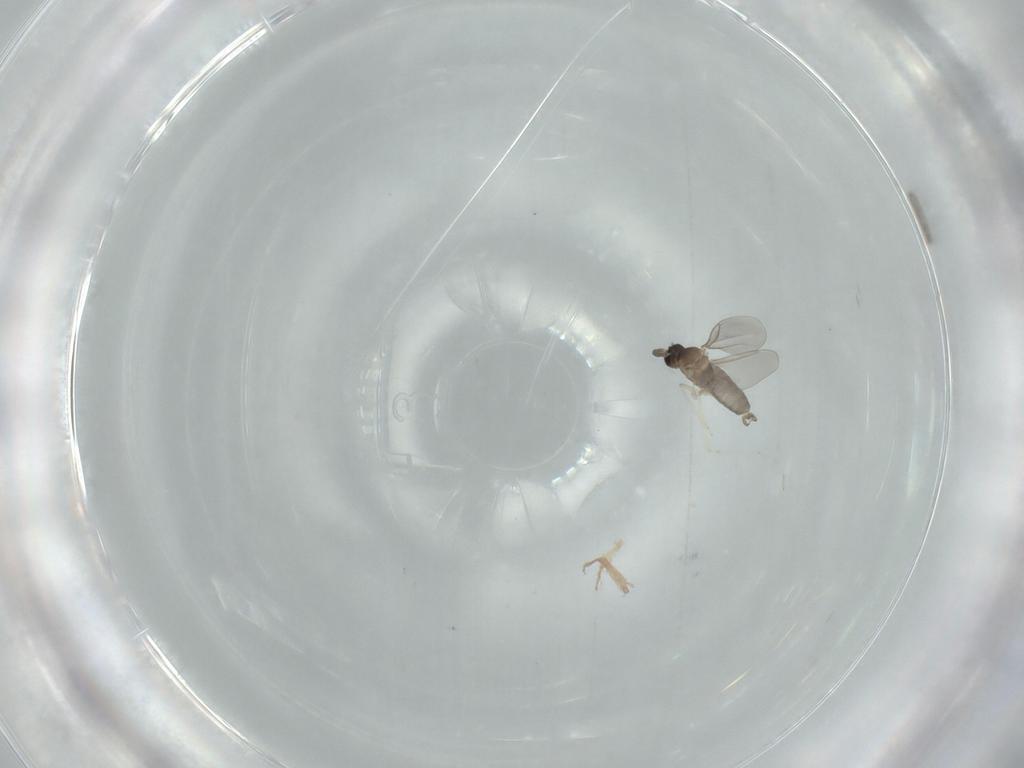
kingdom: Animalia
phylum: Arthropoda
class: Insecta
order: Diptera
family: Cecidomyiidae
